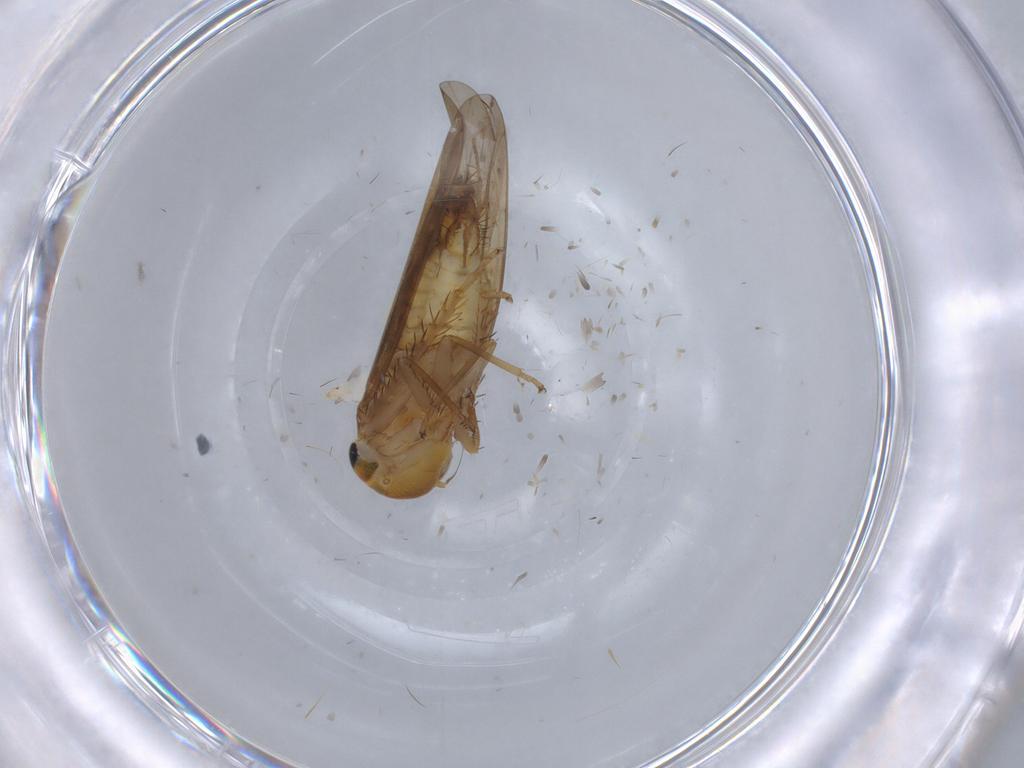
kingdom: Animalia
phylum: Arthropoda
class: Insecta
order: Hemiptera
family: Cicadellidae
